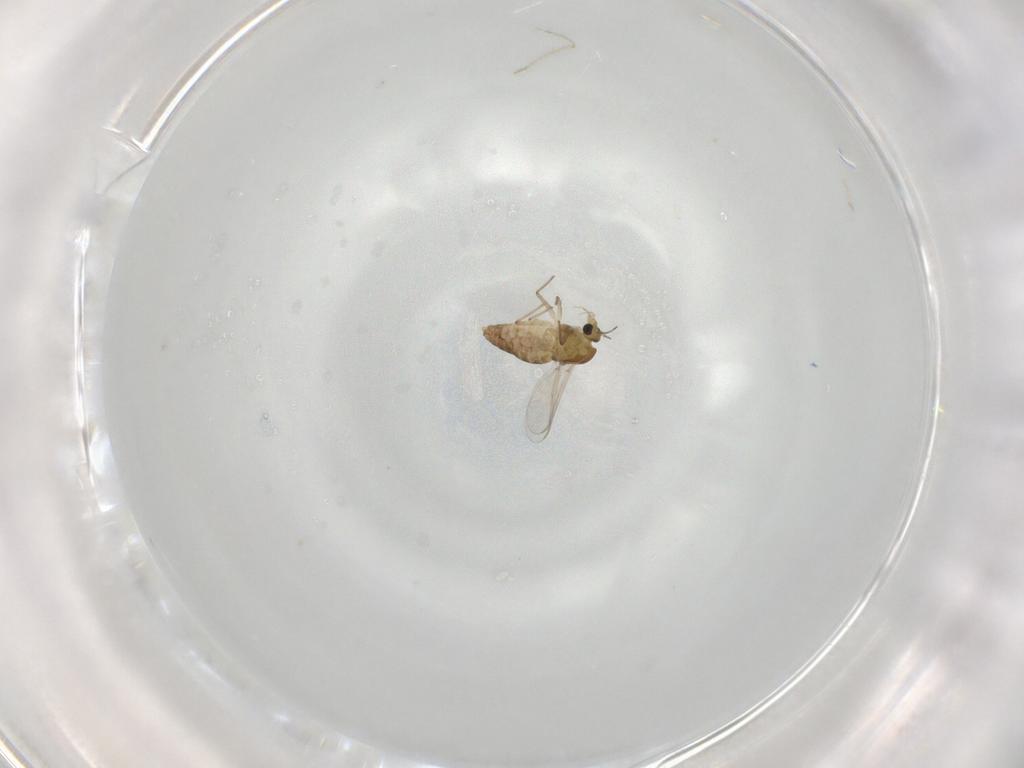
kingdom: Animalia
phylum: Arthropoda
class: Insecta
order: Diptera
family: Chironomidae
